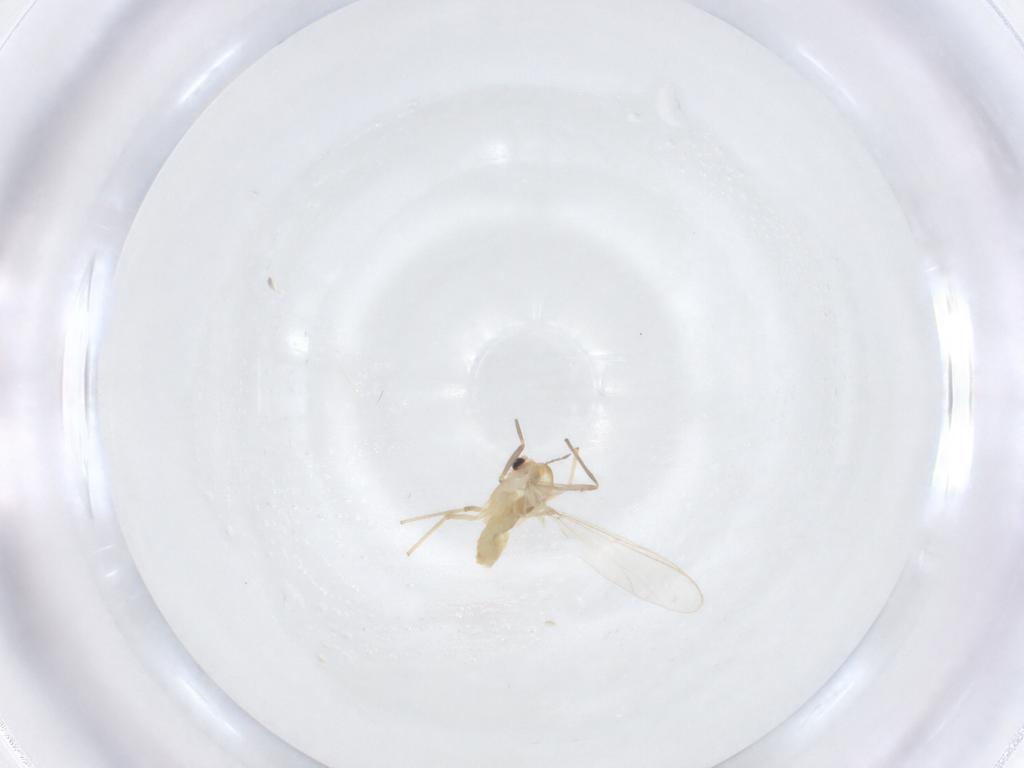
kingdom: Animalia
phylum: Arthropoda
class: Insecta
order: Diptera
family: Chironomidae
